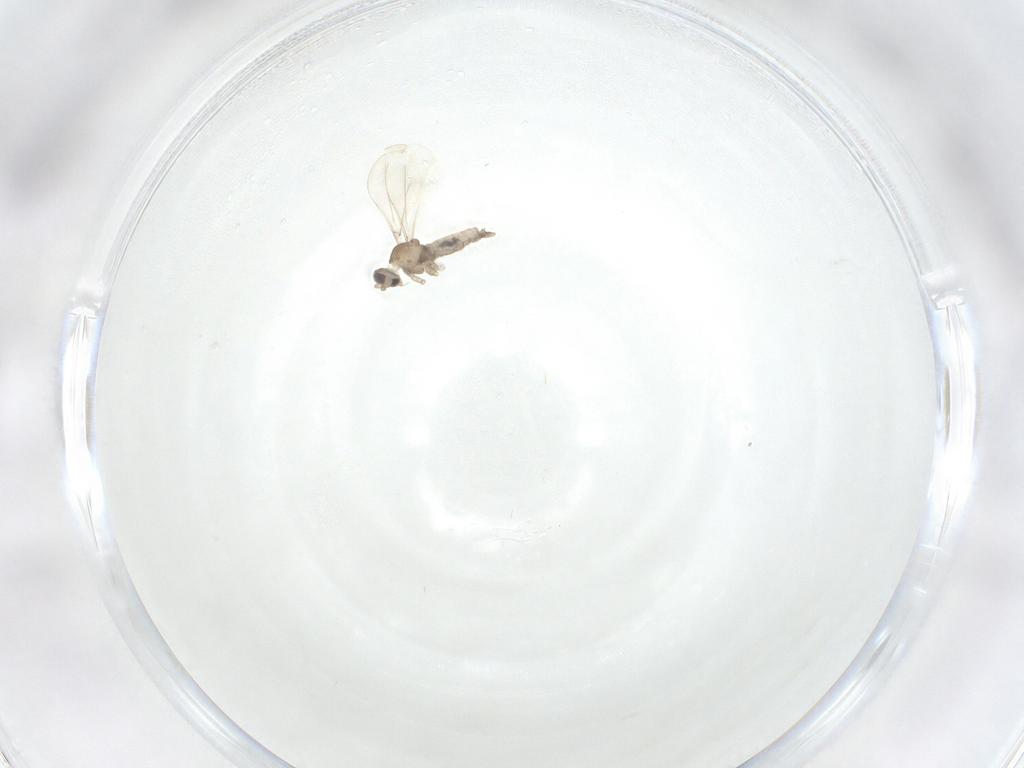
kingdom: Animalia
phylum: Arthropoda
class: Insecta
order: Diptera
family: Cecidomyiidae
